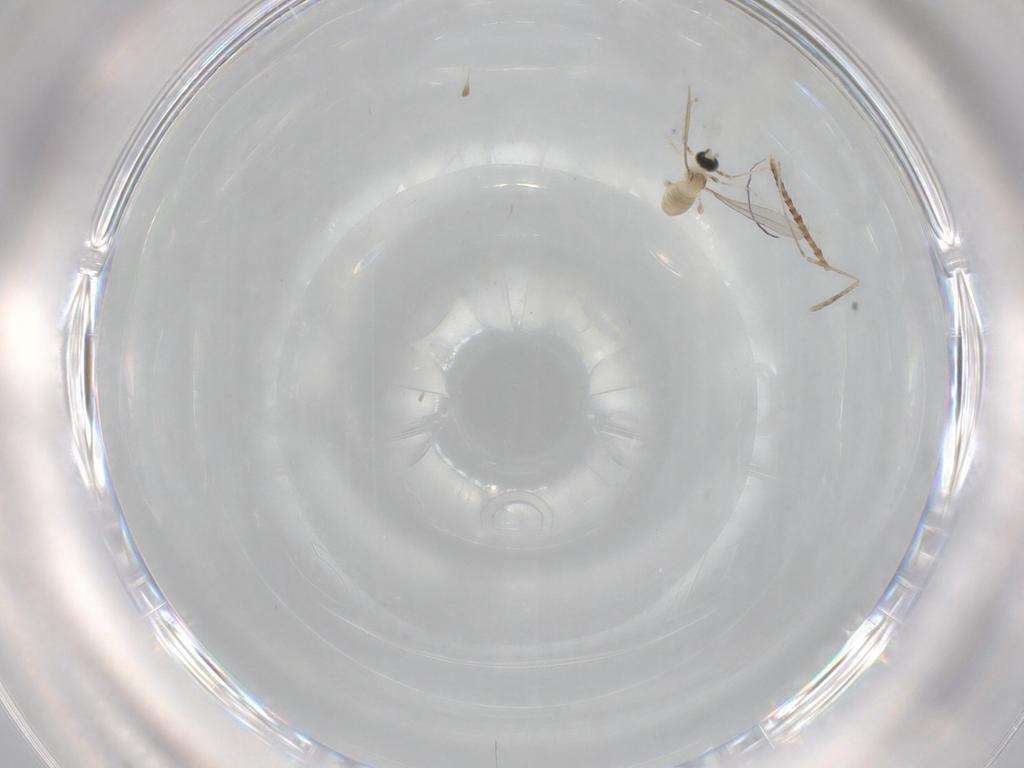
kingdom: Animalia
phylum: Arthropoda
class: Insecta
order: Diptera
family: Cecidomyiidae
